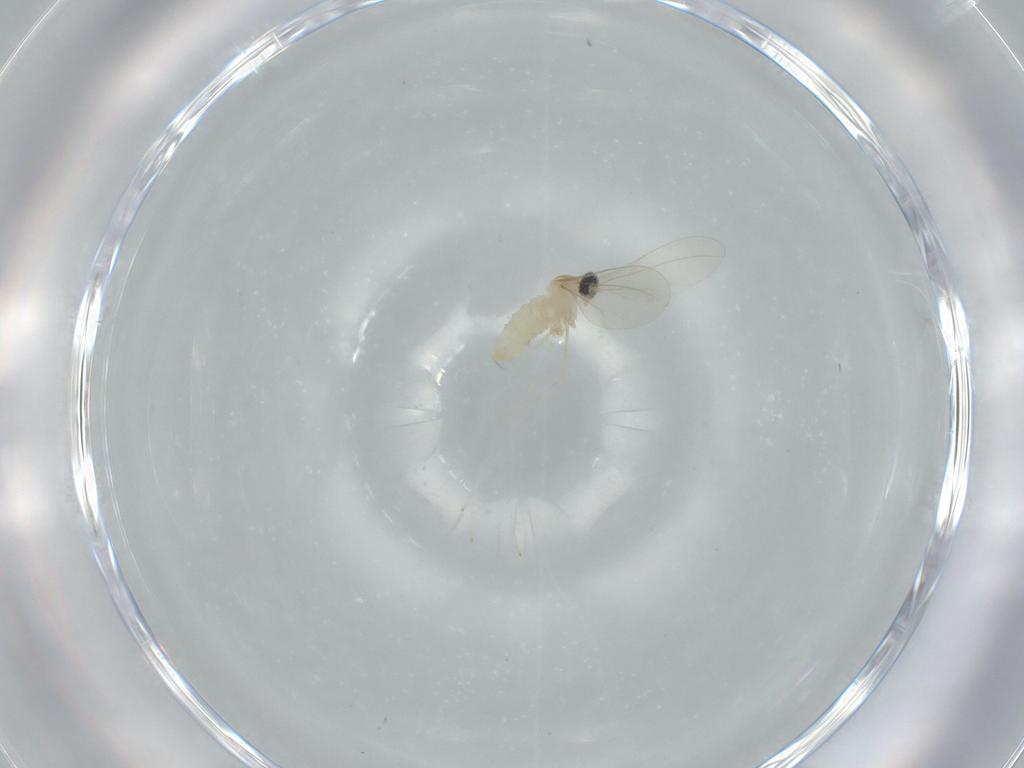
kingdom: Animalia
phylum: Arthropoda
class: Insecta
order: Diptera
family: Cecidomyiidae
